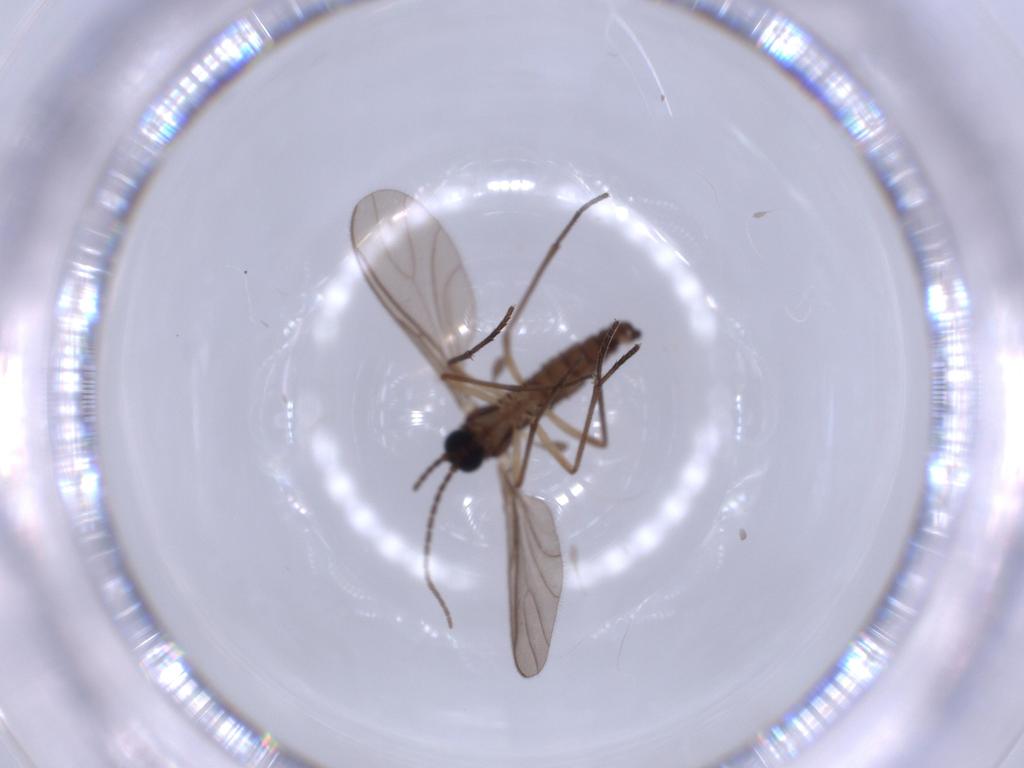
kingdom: Animalia
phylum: Arthropoda
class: Insecta
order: Diptera
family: Sciaridae
